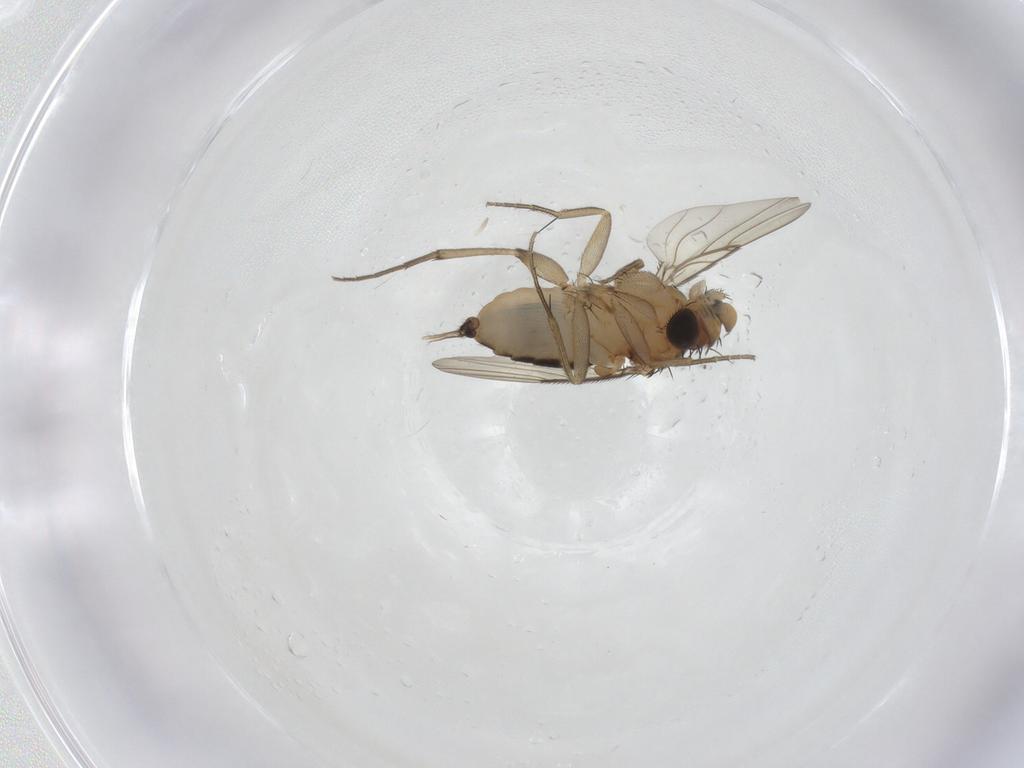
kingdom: Animalia
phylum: Arthropoda
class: Insecta
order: Diptera
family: Phoridae
